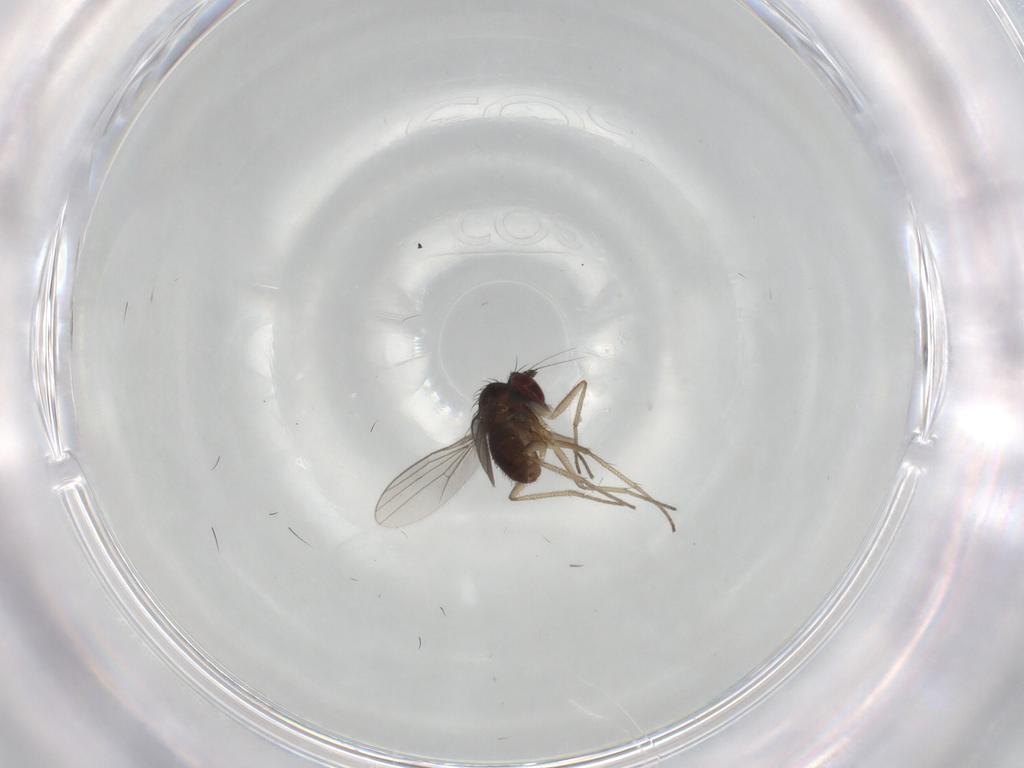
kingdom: Animalia
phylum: Arthropoda
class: Insecta
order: Diptera
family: Dolichopodidae
